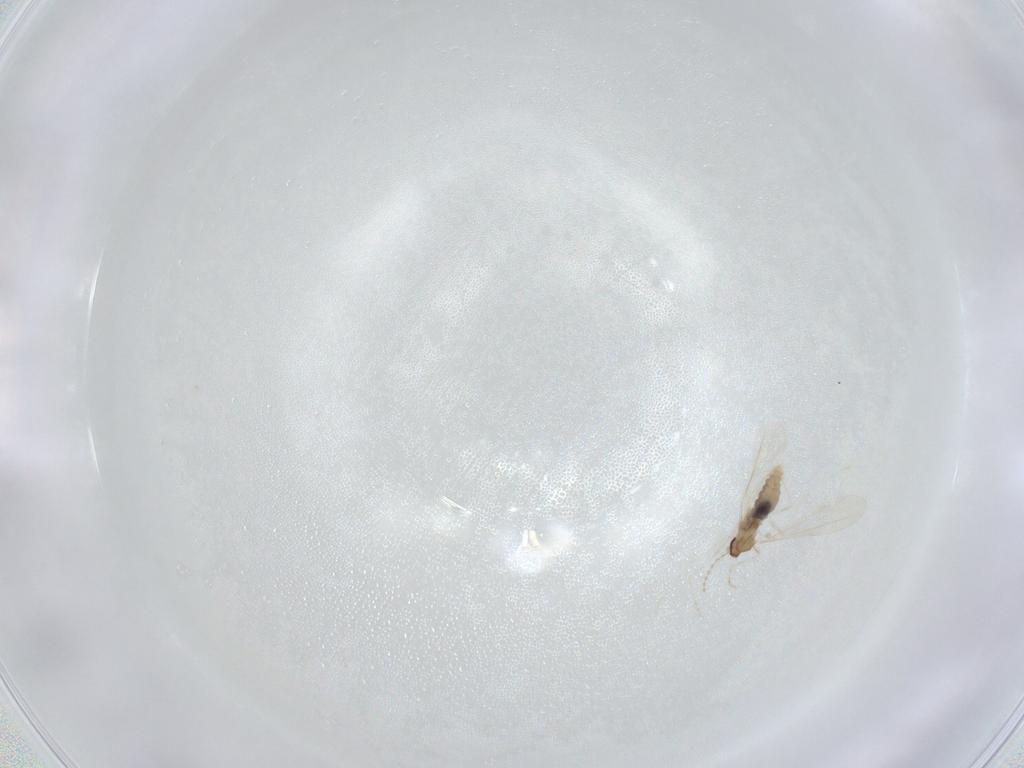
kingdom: Animalia
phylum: Arthropoda
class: Insecta
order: Diptera
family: Cecidomyiidae
